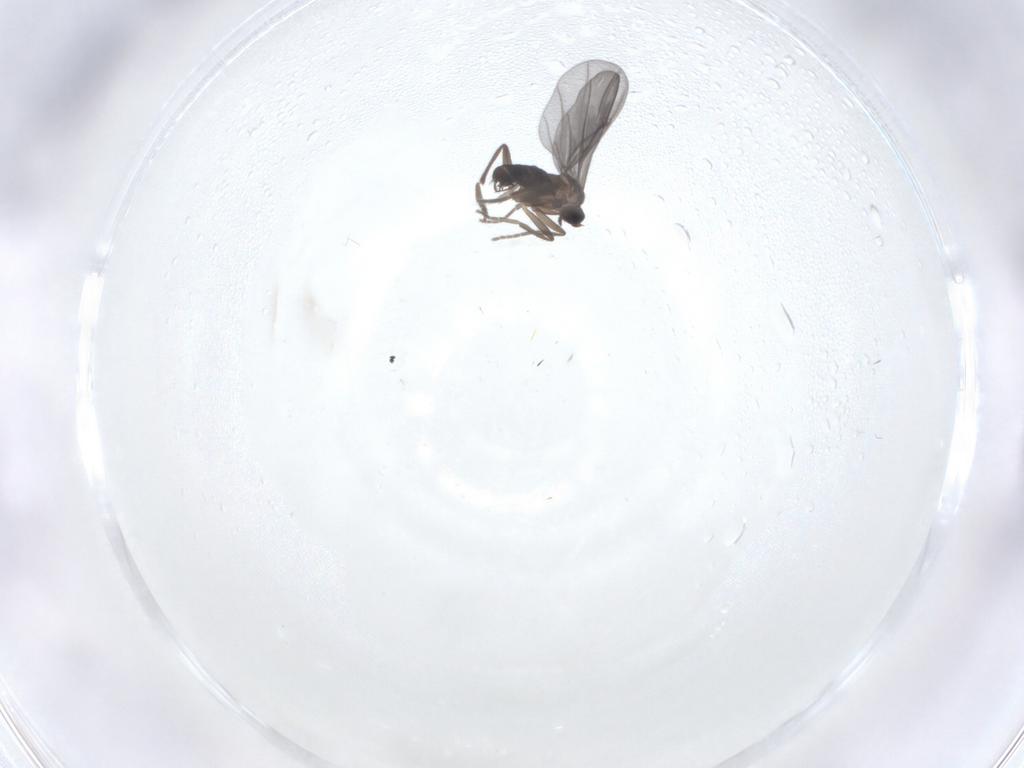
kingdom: Animalia
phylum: Arthropoda
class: Insecta
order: Diptera
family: Phoridae
